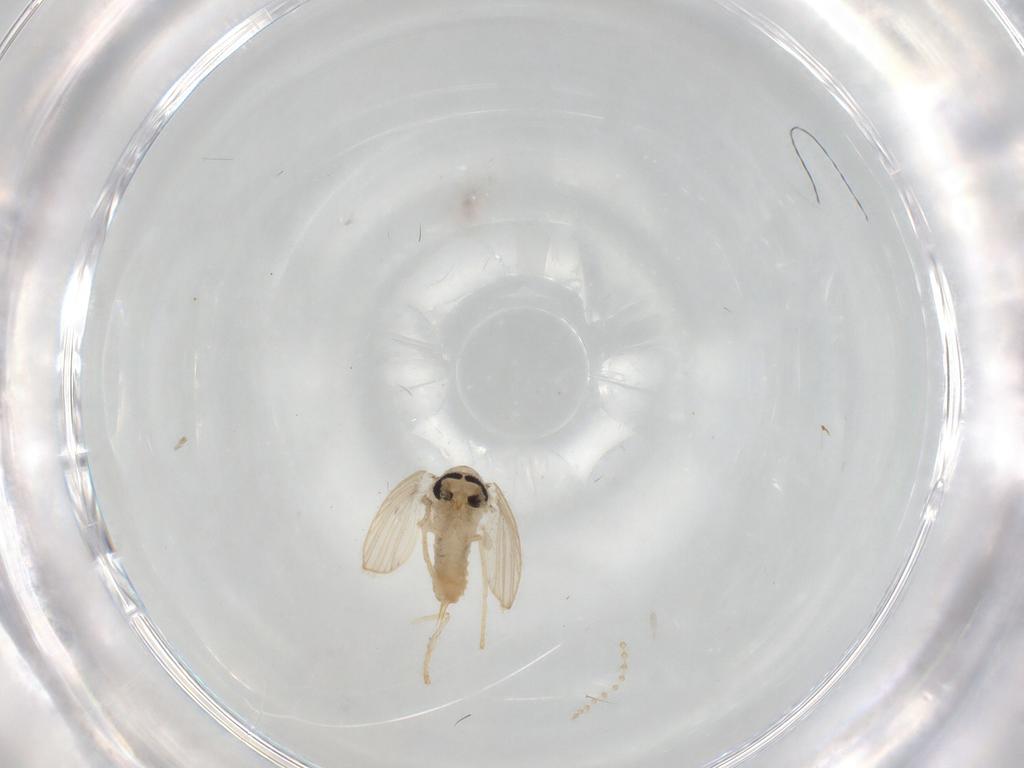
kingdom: Animalia
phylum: Arthropoda
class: Insecta
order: Diptera
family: Psychodidae
